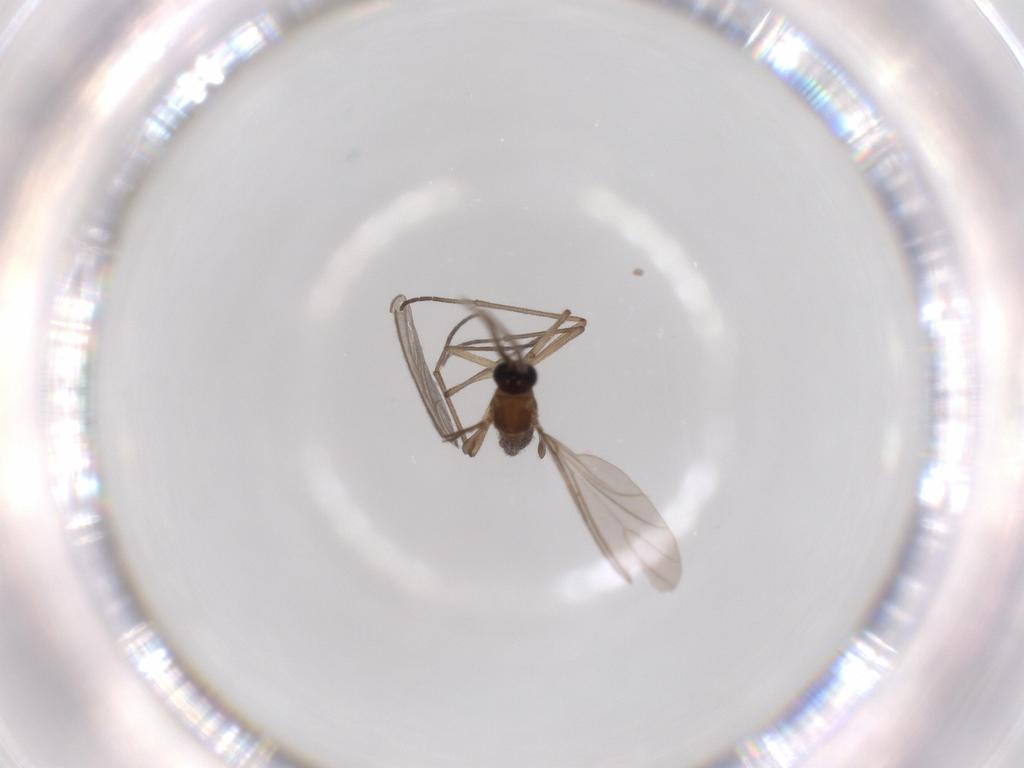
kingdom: Animalia
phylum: Arthropoda
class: Insecta
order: Diptera
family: Sciaridae
